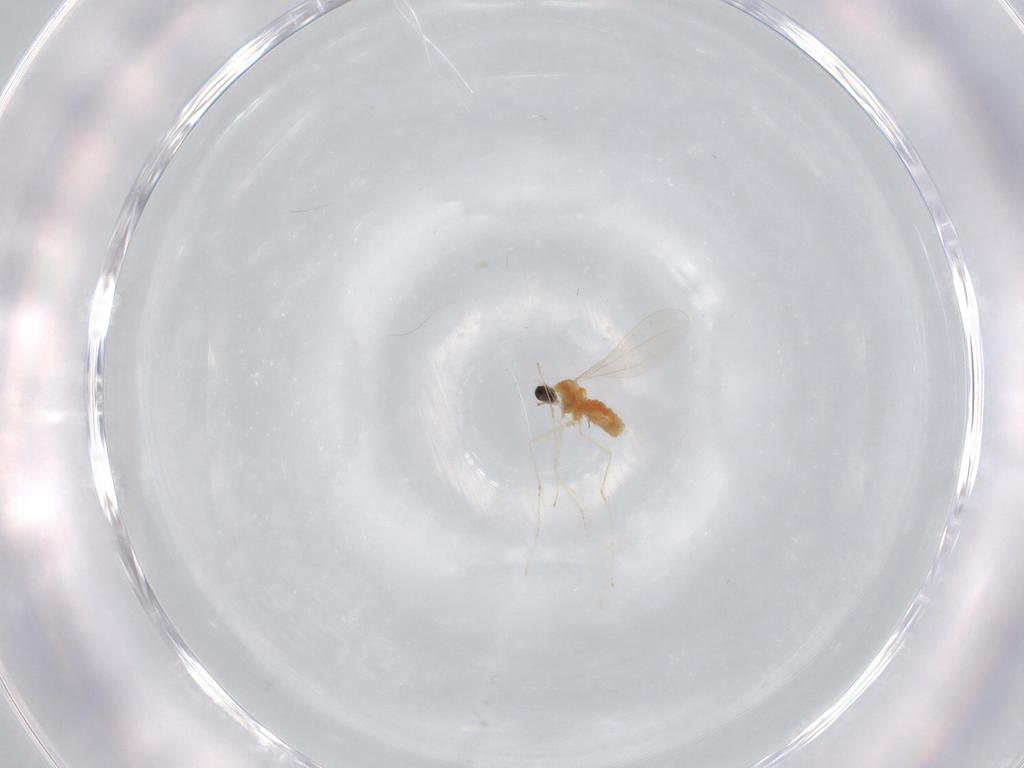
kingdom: Animalia
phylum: Arthropoda
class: Insecta
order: Diptera
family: Cecidomyiidae
